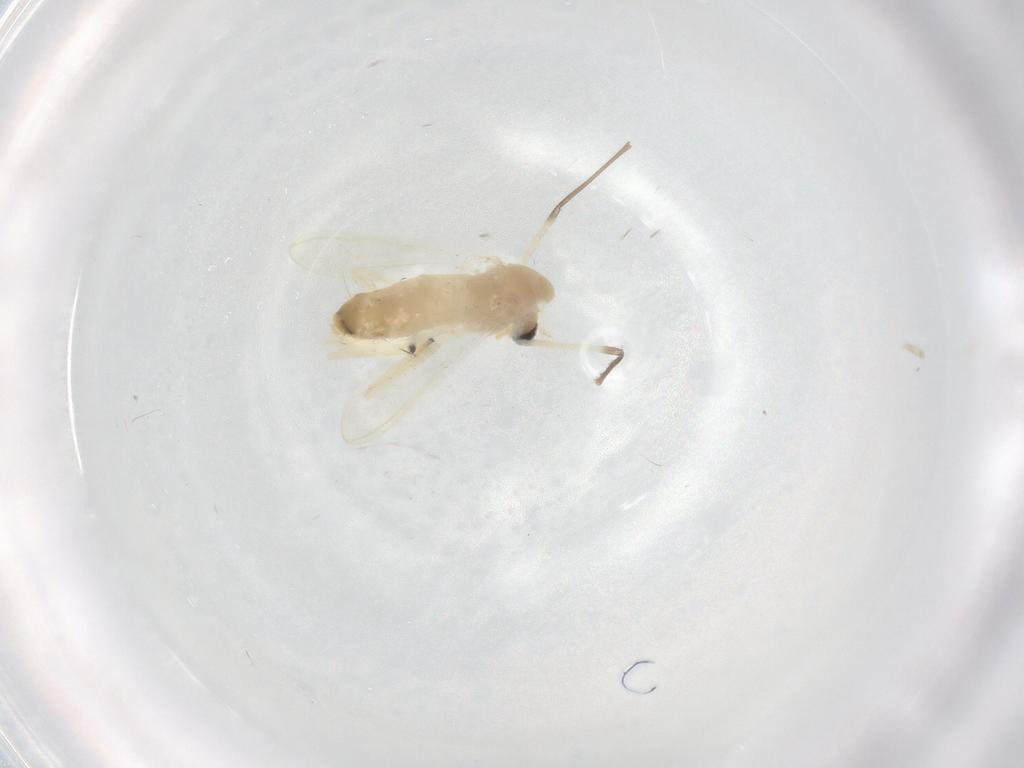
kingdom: Animalia
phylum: Arthropoda
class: Insecta
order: Diptera
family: Chironomidae
